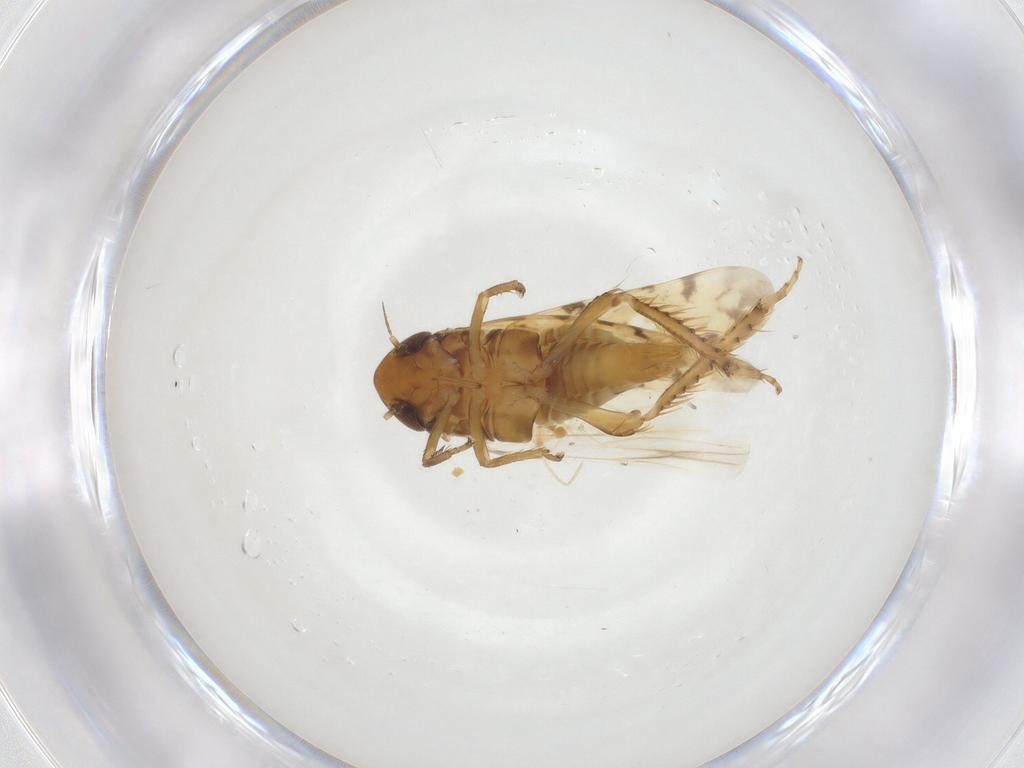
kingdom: Animalia
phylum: Arthropoda
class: Insecta
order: Hemiptera
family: Cicadellidae
